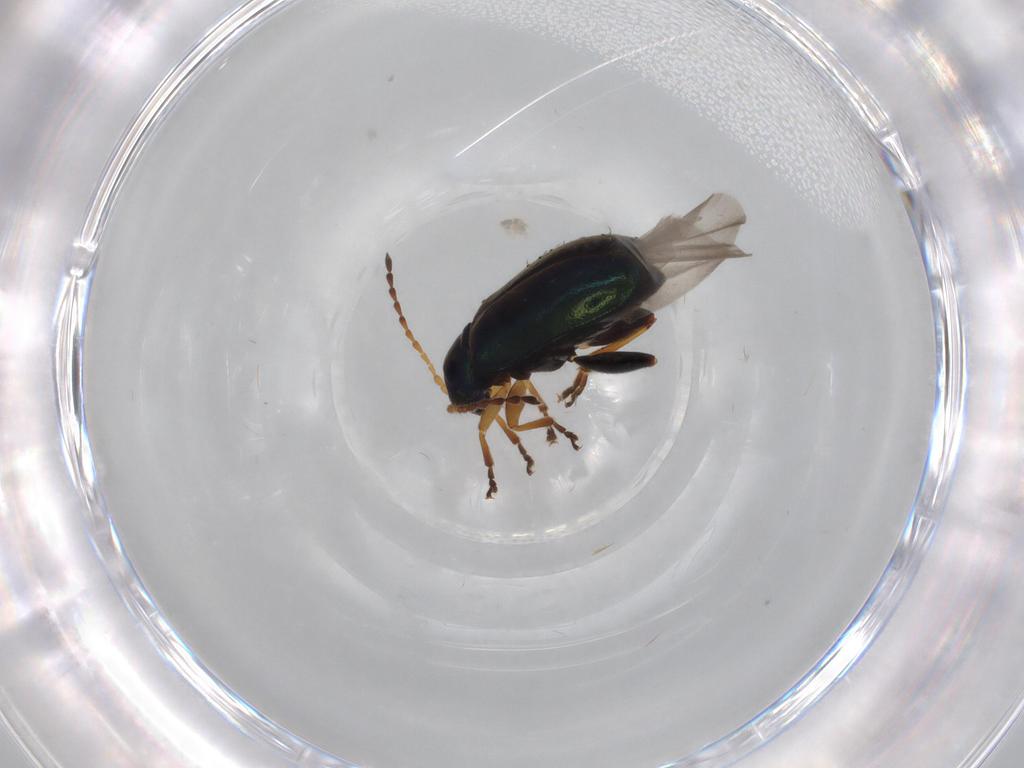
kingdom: Animalia
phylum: Arthropoda
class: Insecta
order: Coleoptera
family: Chrysomelidae
